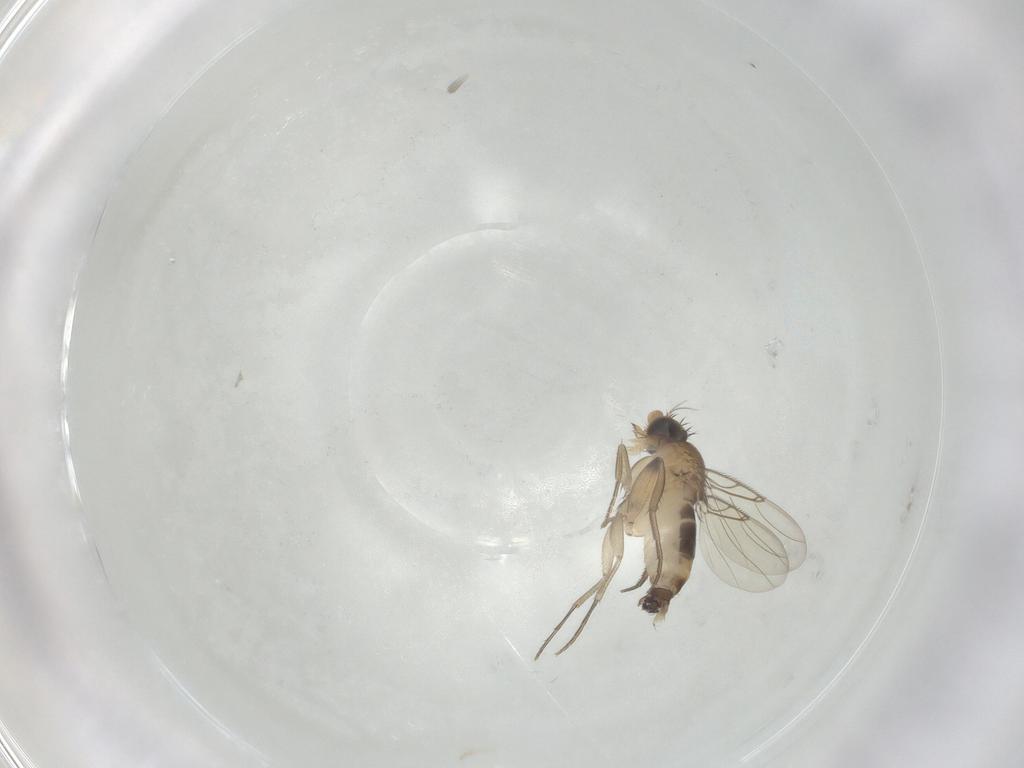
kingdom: Animalia
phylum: Arthropoda
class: Insecta
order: Diptera
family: Phoridae
